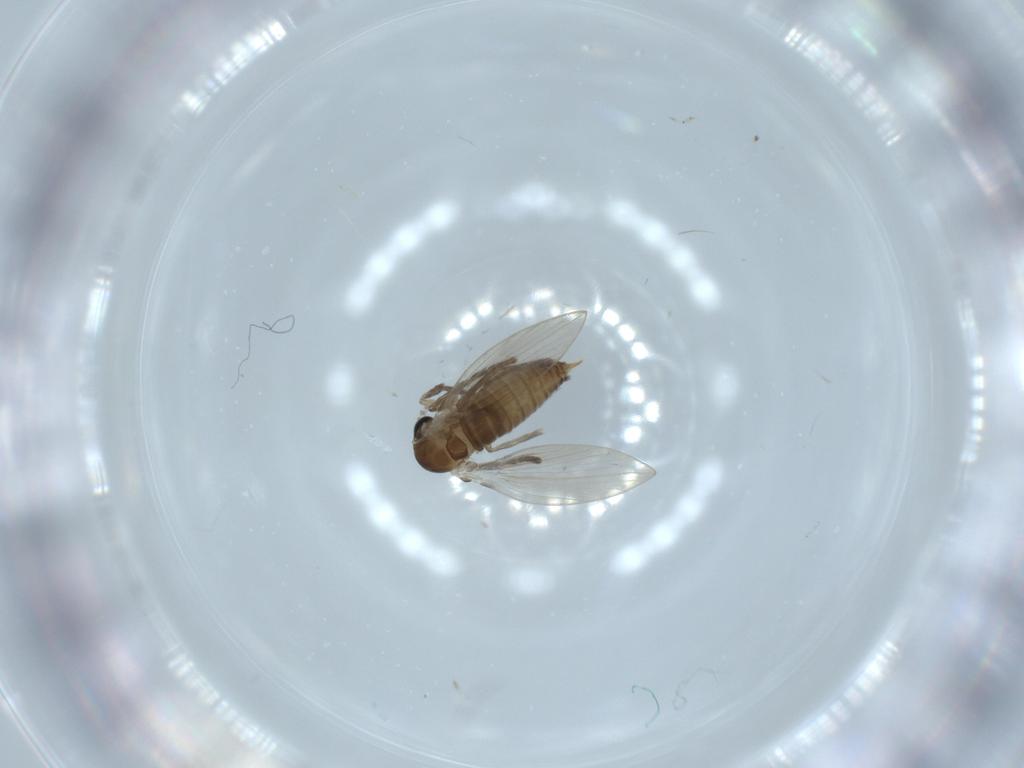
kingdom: Animalia
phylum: Arthropoda
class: Insecta
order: Diptera
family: Psychodidae
